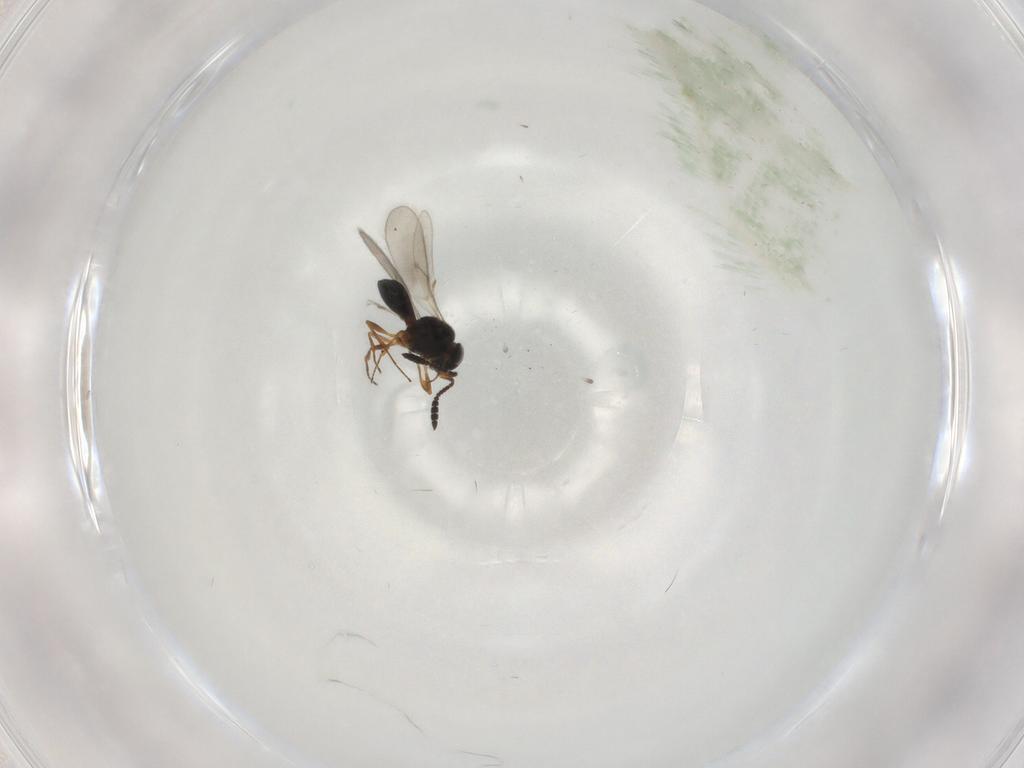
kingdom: Animalia
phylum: Arthropoda
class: Insecta
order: Hymenoptera
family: Scelionidae
